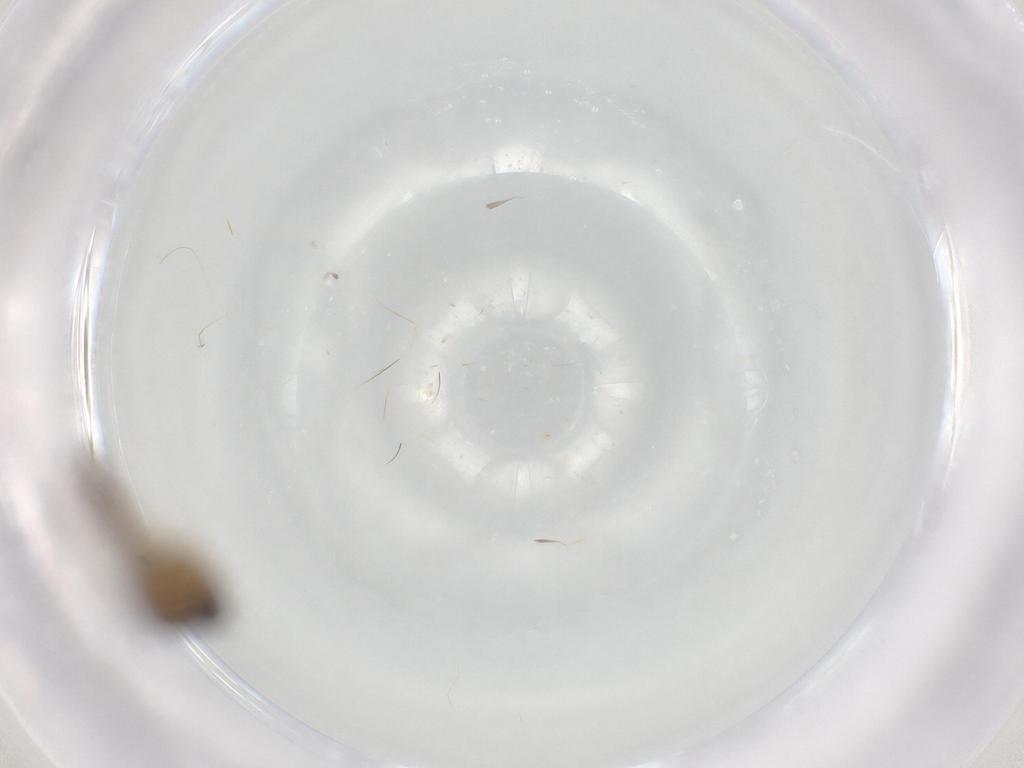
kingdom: Animalia
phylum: Arthropoda
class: Insecta
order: Diptera
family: Ceratopogonidae
